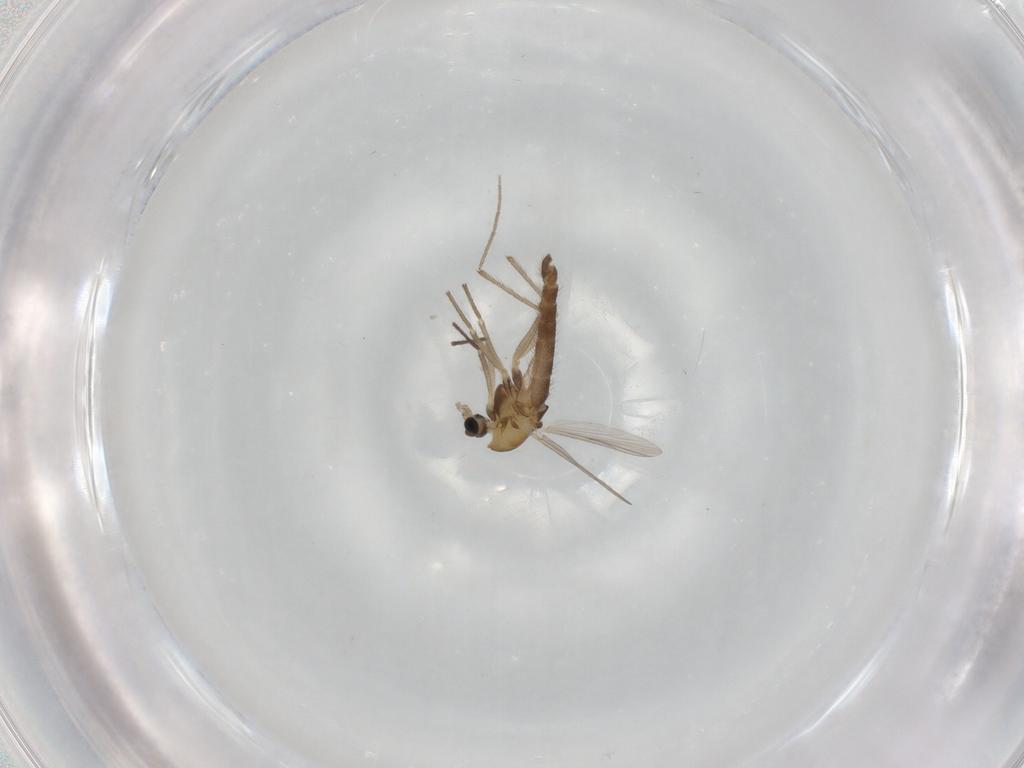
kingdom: Animalia
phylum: Arthropoda
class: Insecta
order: Diptera
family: Chironomidae
